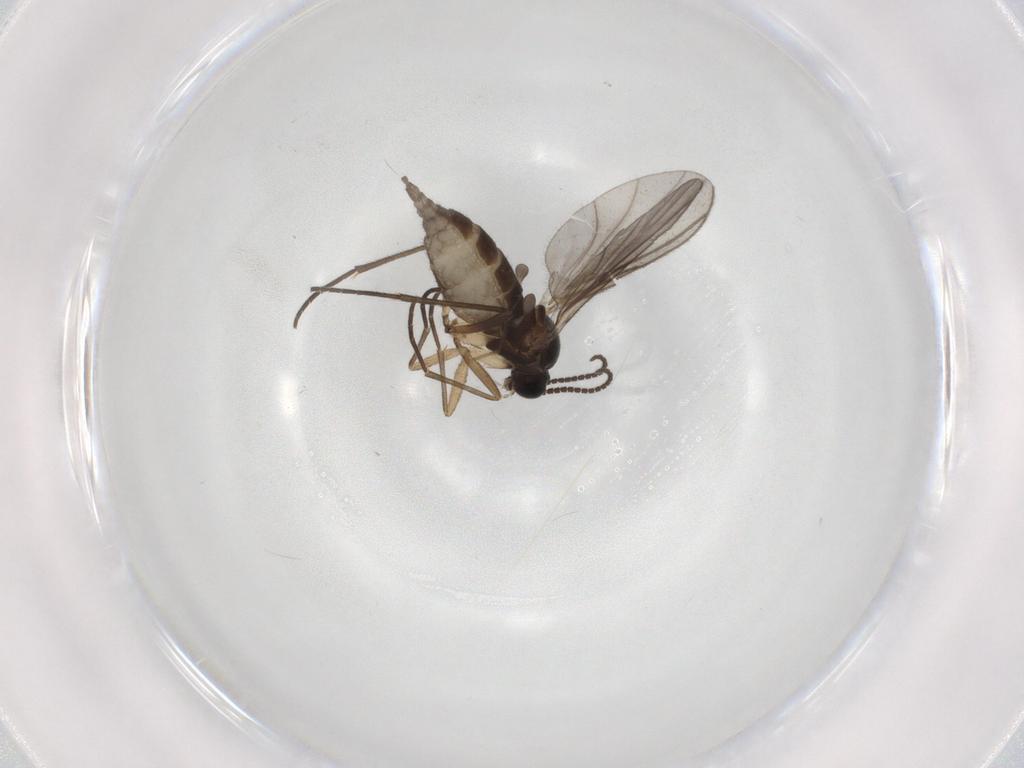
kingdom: Animalia
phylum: Arthropoda
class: Insecta
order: Diptera
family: Sciaridae
